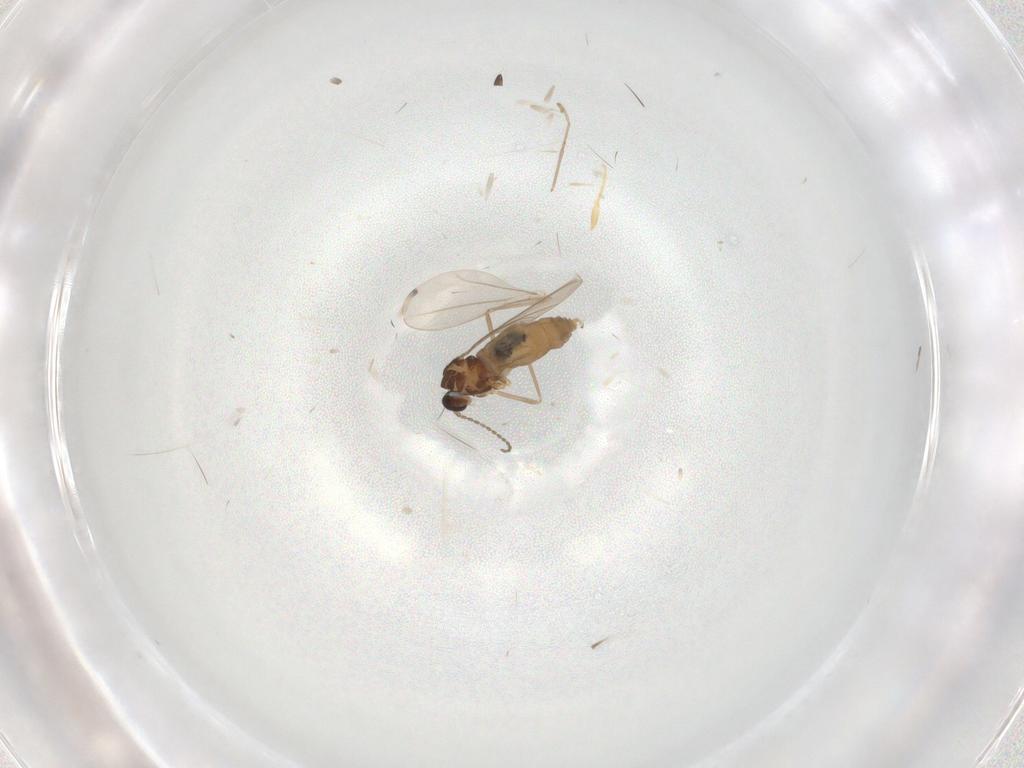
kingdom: Animalia
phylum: Arthropoda
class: Insecta
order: Diptera
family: Cecidomyiidae
